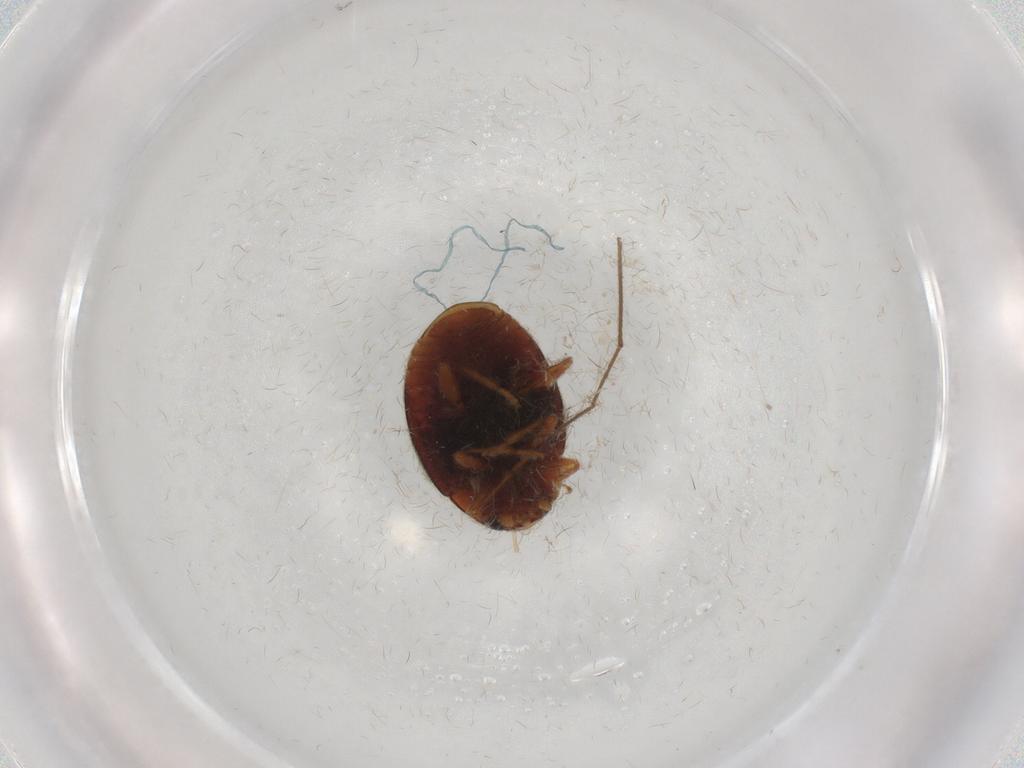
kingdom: Animalia
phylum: Arthropoda
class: Insecta
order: Coleoptera
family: Coccinellidae
